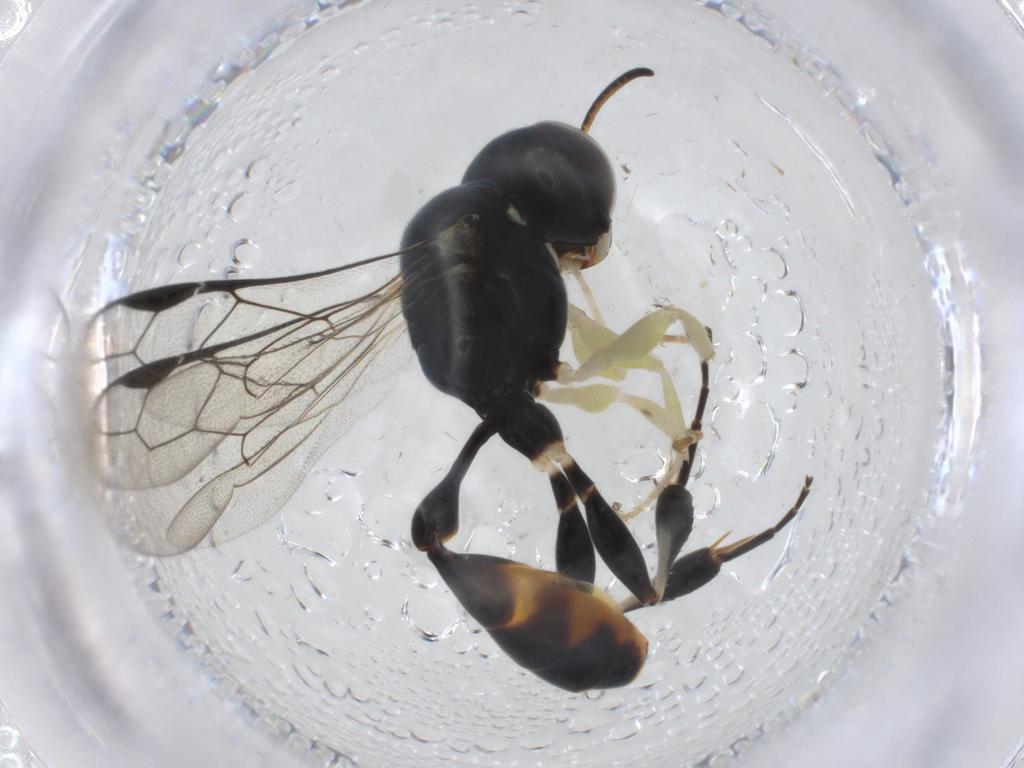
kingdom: Animalia
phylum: Arthropoda
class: Insecta
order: Hymenoptera
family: Crabronidae
